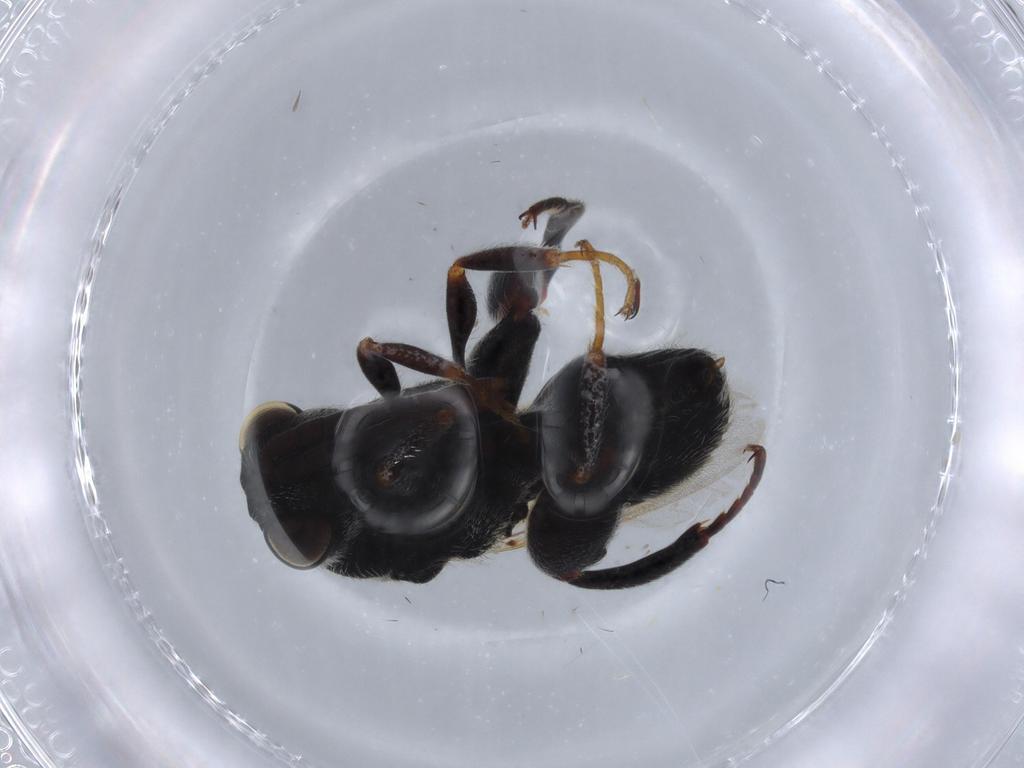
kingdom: Animalia
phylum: Arthropoda
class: Insecta
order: Hymenoptera
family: Chalcididae
